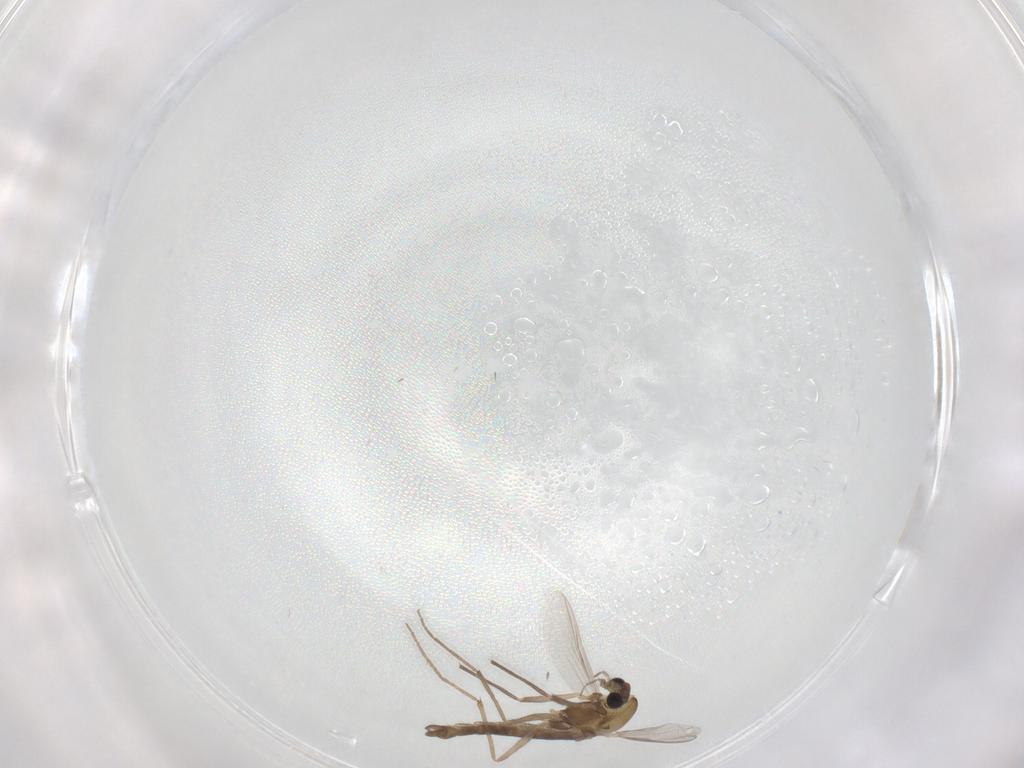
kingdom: Animalia
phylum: Arthropoda
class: Insecta
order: Diptera
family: Chironomidae
